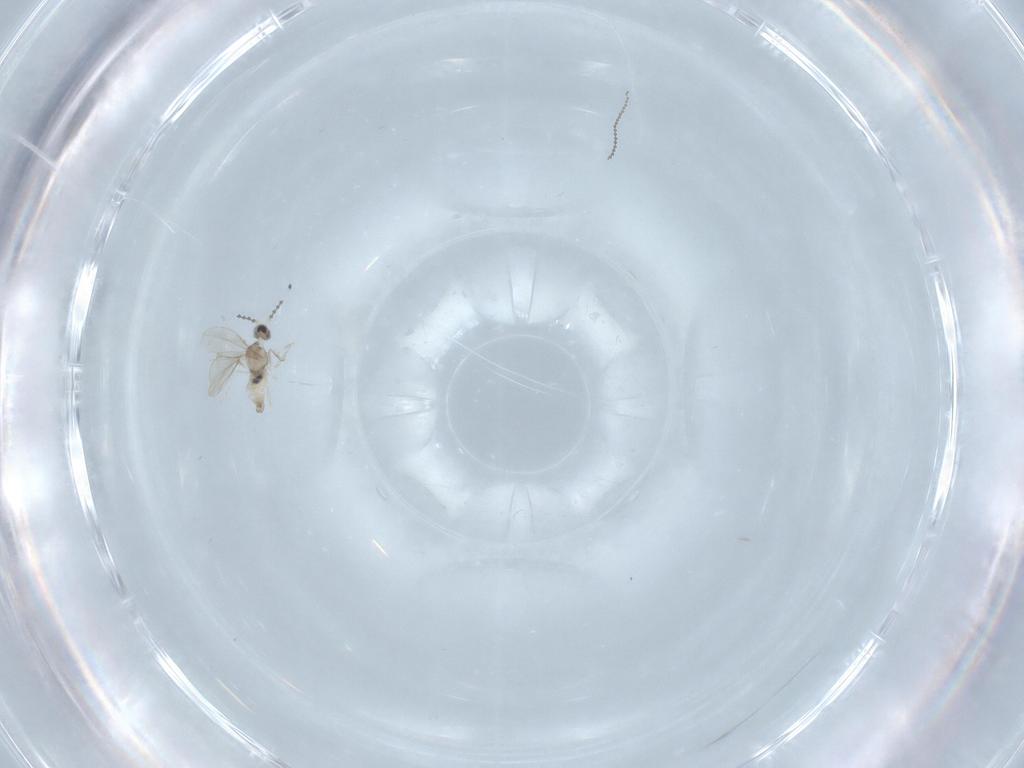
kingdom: Animalia
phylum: Arthropoda
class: Insecta
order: Diptera
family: Cecidomyiidae
